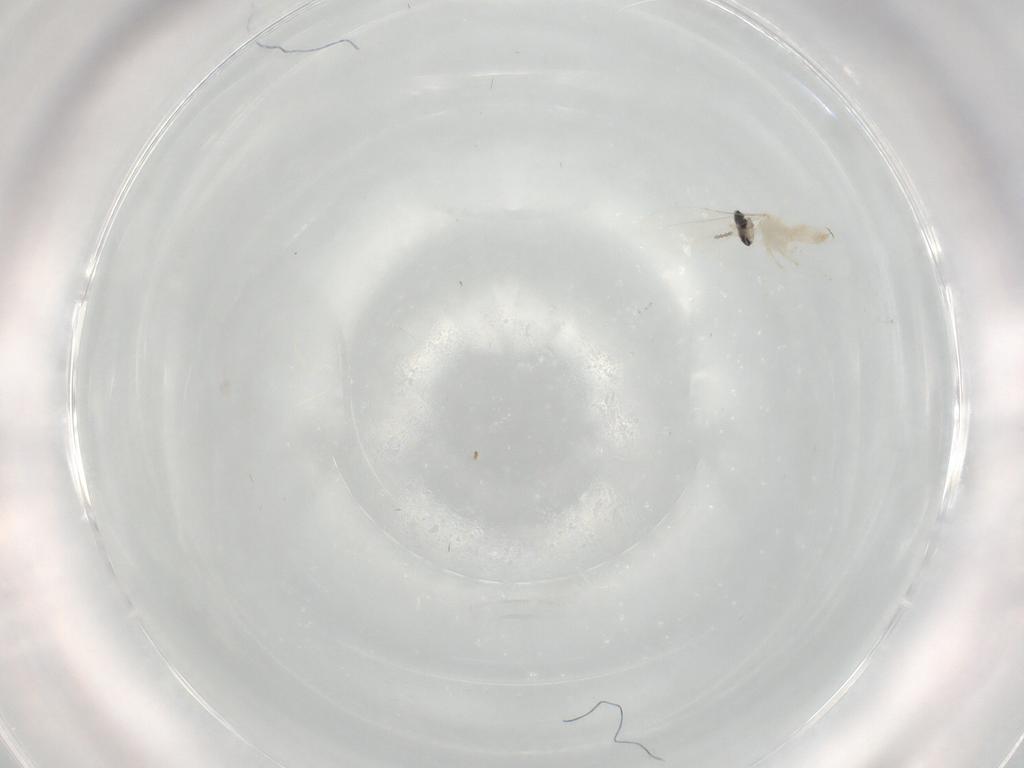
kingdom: Animalia
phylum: Arthropoda
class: Insecta
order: Diptera
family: Cecidomyiidae
